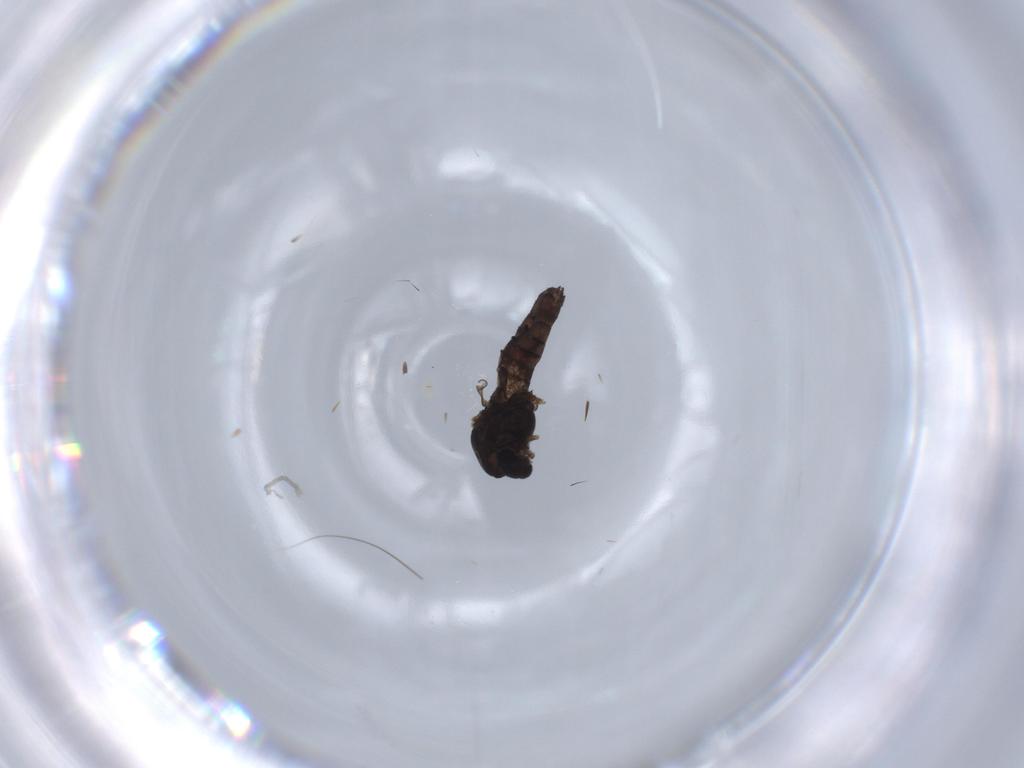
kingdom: Animalia
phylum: Arthropoda
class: Insecta
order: Diptera
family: Chironomidae
